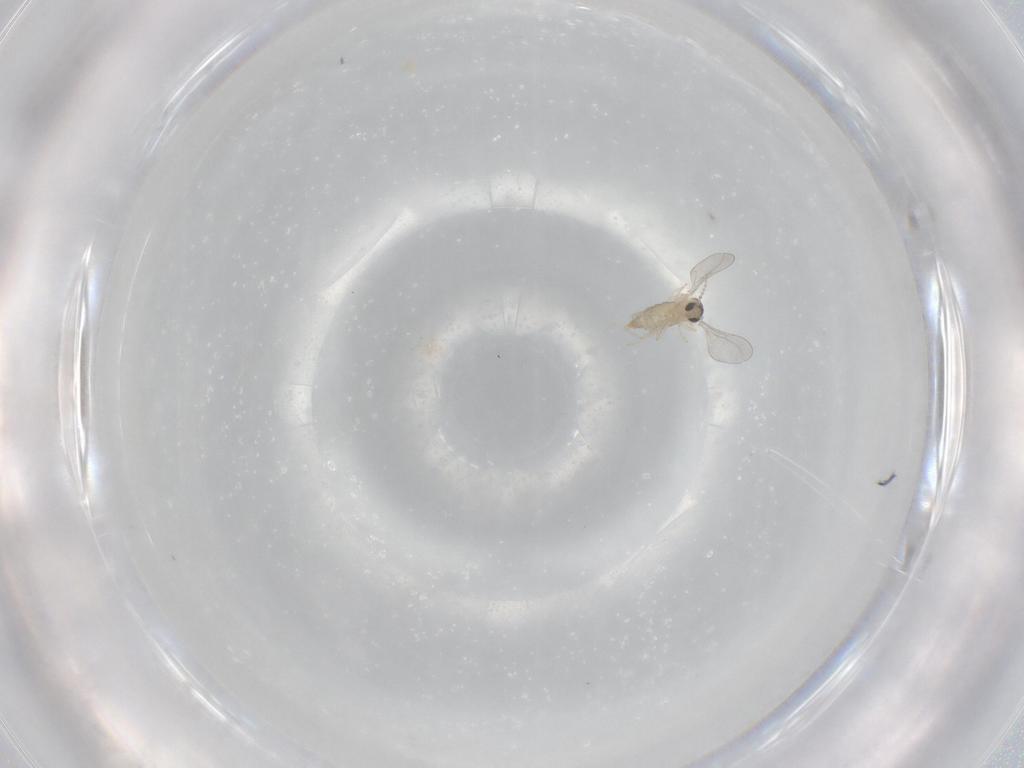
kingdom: Animalia
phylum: Arthropoda
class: Insecta
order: Diptera
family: Cecidomyiidae
